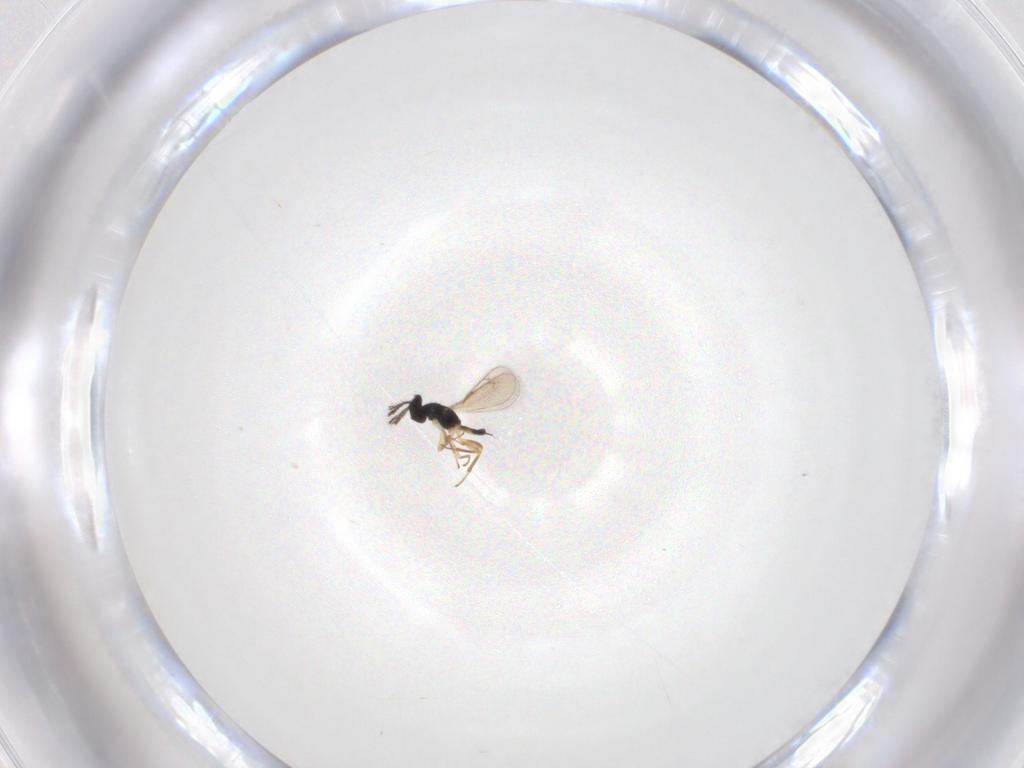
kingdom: Animalia
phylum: Arthropoda
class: Insecta
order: Hymenoptera
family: Eulophidae
